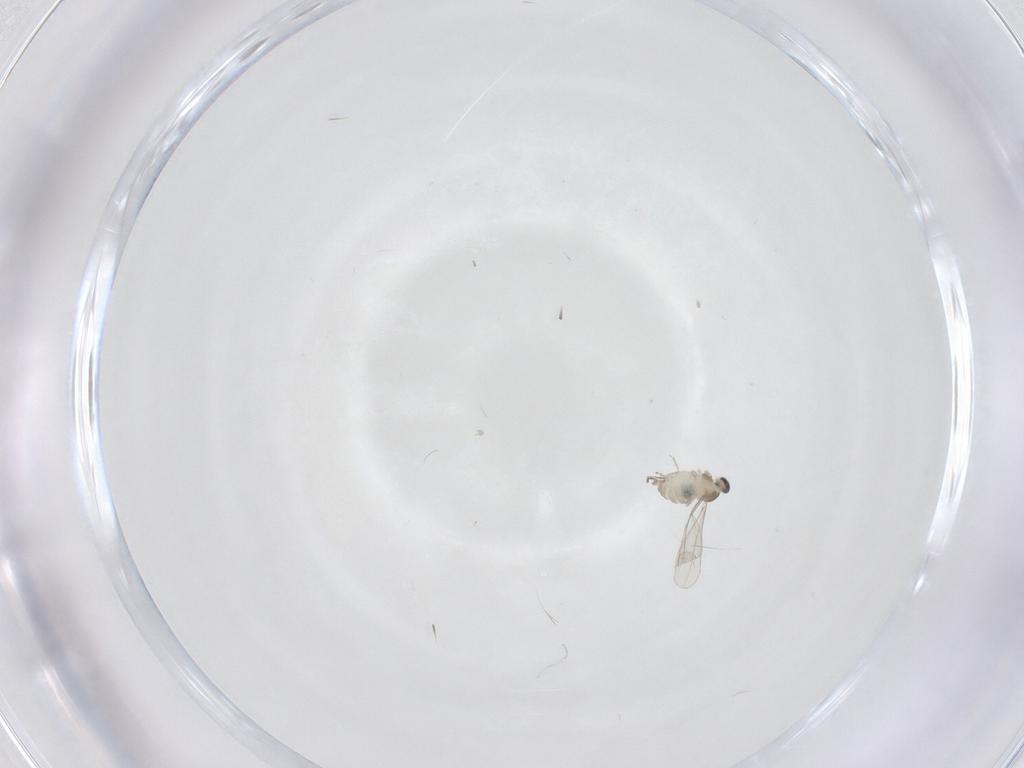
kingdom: Animalia
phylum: Arthropoda
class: Insecta
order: Diptera
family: Cecidomyiidae
